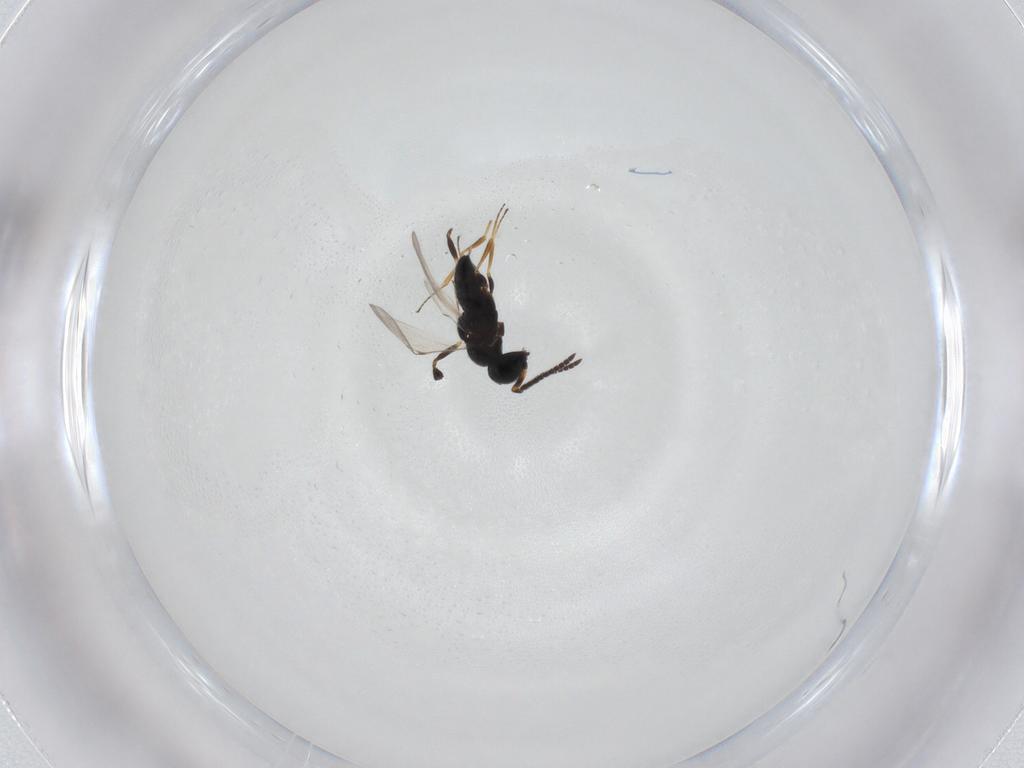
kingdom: Animalia
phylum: Arthropoda
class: Insecta
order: Hymenoptera
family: Scelionidae
